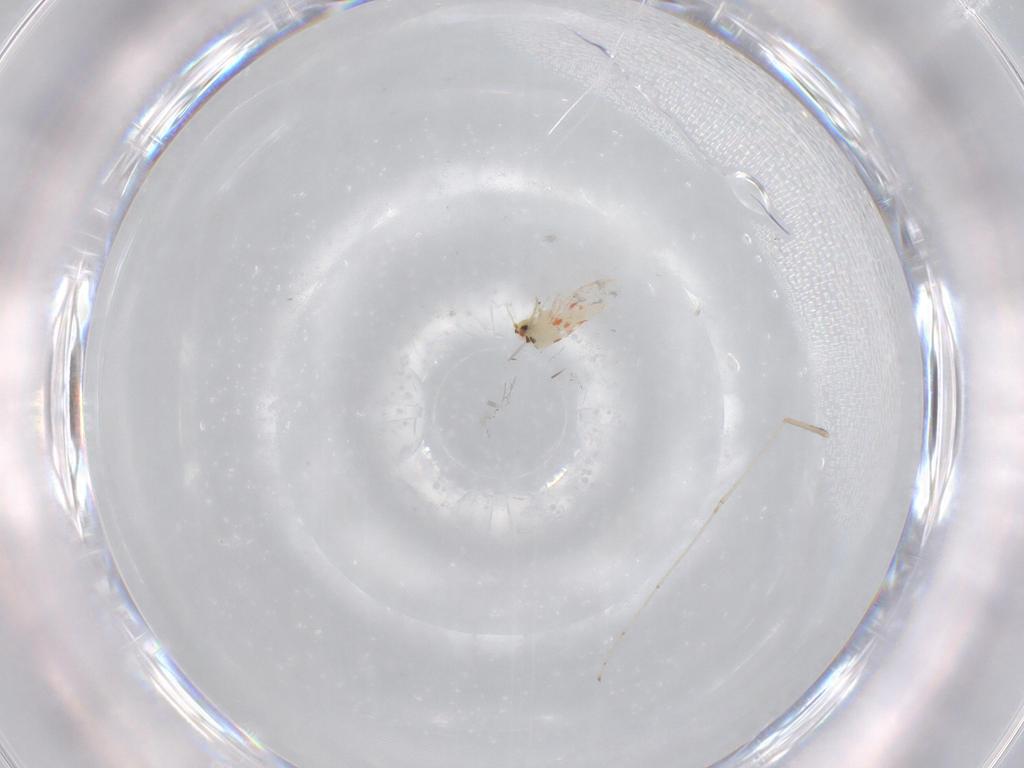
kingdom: Animalia
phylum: Arthropoda
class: Insecta
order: Hemiptera
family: Aleyrodidae
